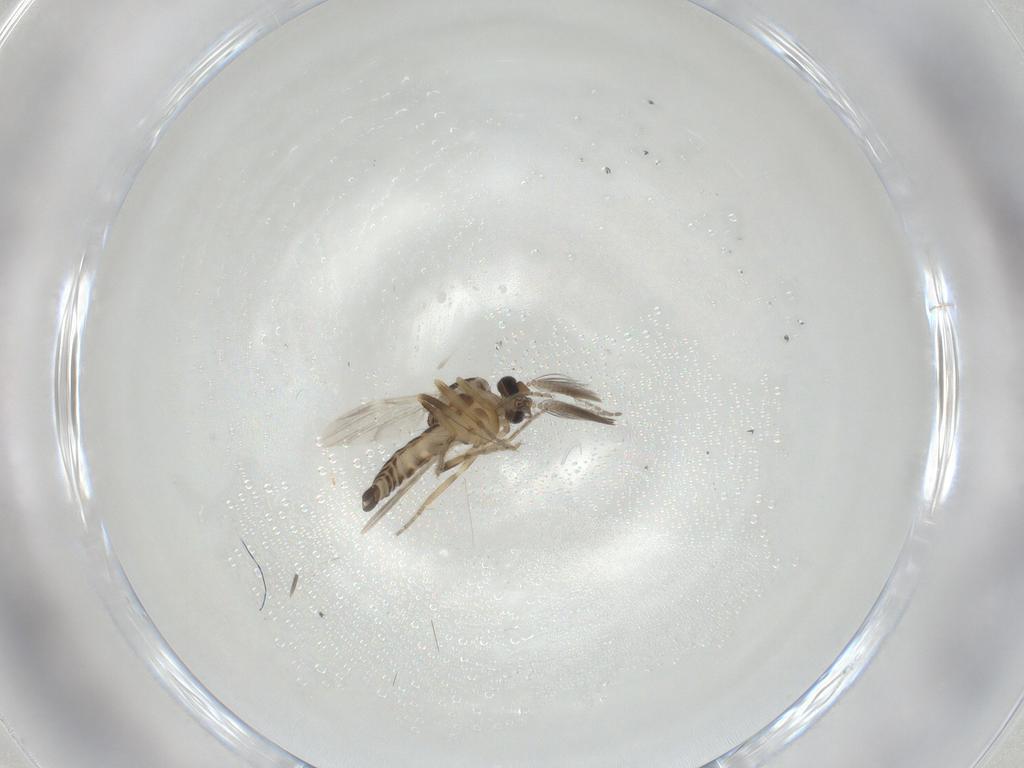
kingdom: Animalia
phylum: Arthropoda
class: Insecta
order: Diptera
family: Ceratopogonidae
